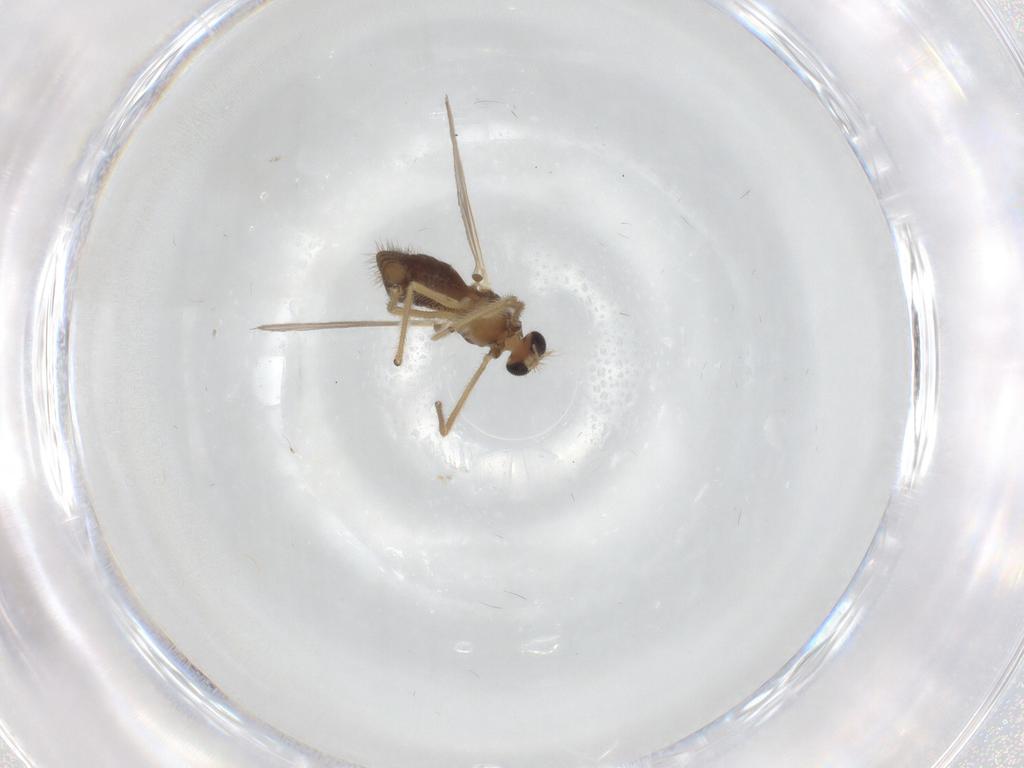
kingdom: Animalia
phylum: Arthropoda
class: Insecta
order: Diptera
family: Chironomidae
